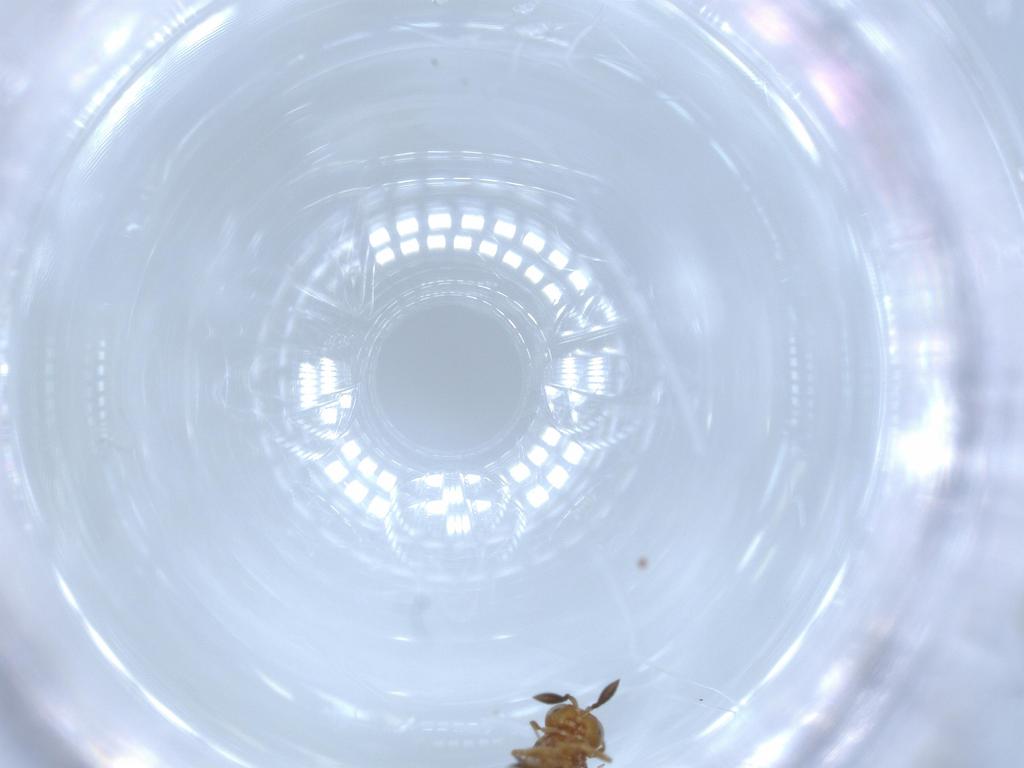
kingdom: Animalia
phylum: Arthropoda
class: Insecta
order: Hymenoptera
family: Scelionidae
